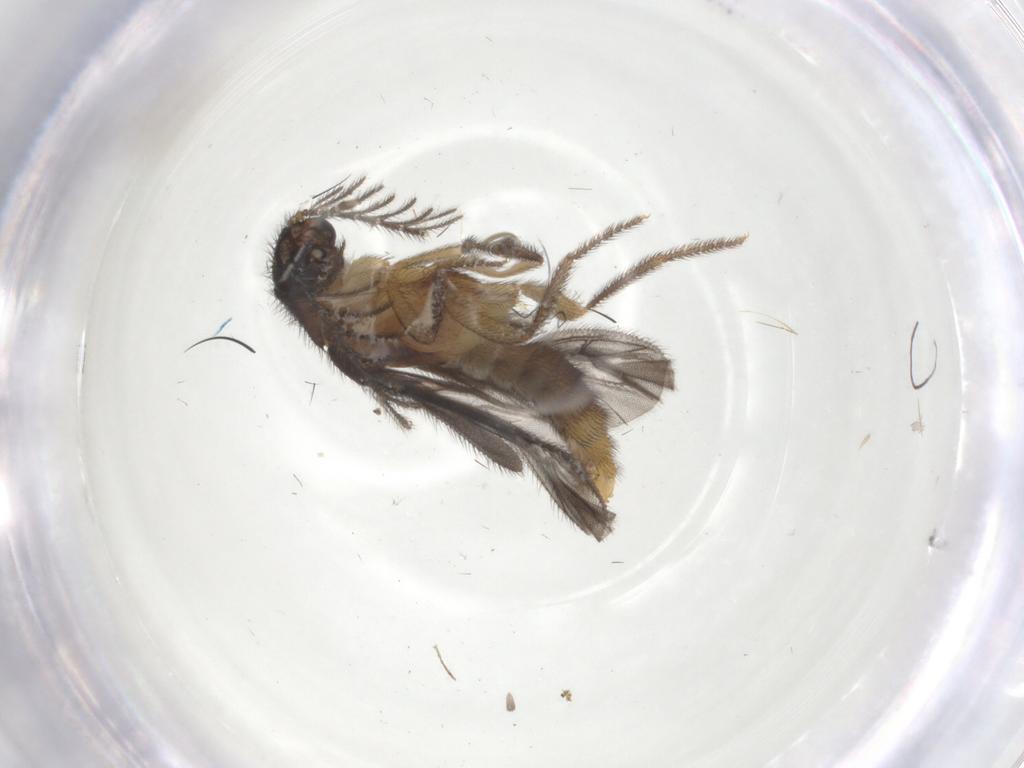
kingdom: Animalia
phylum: Arthropoda
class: Insecta
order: Coleoptera
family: Phengodidae
